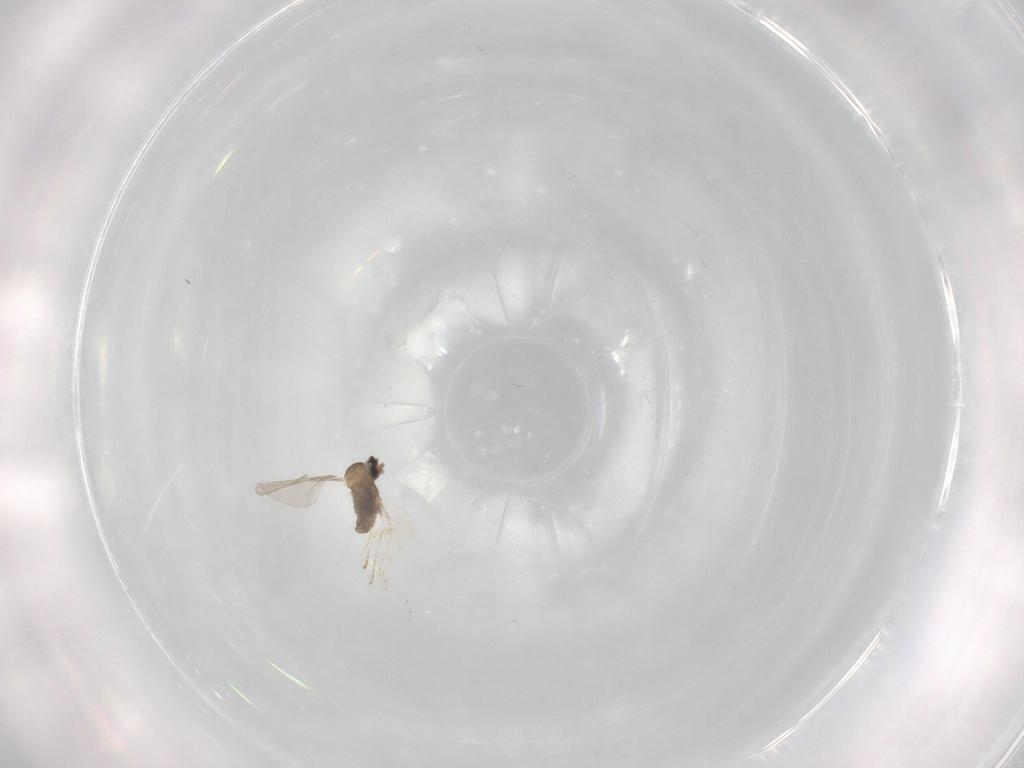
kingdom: Animalia
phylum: Arthropoda
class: Insecta
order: Diptera
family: Cecidomyiidae
